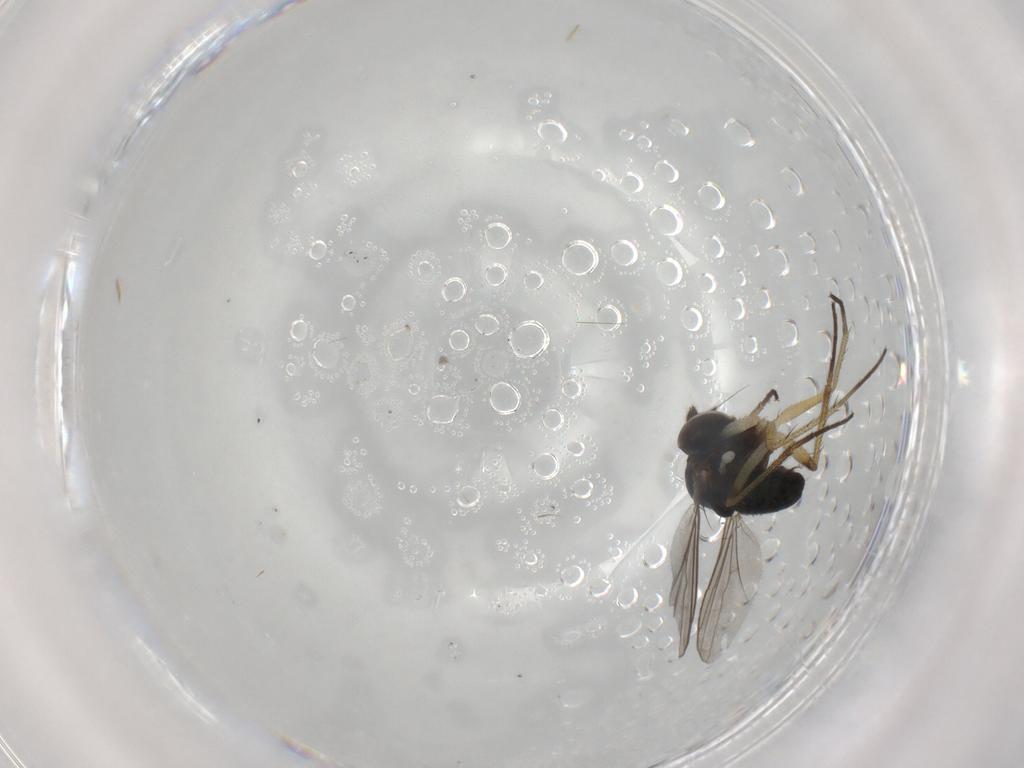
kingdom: Animalia
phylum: Arthropoda
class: Insecta
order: Diptera
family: Dolichopodidae
